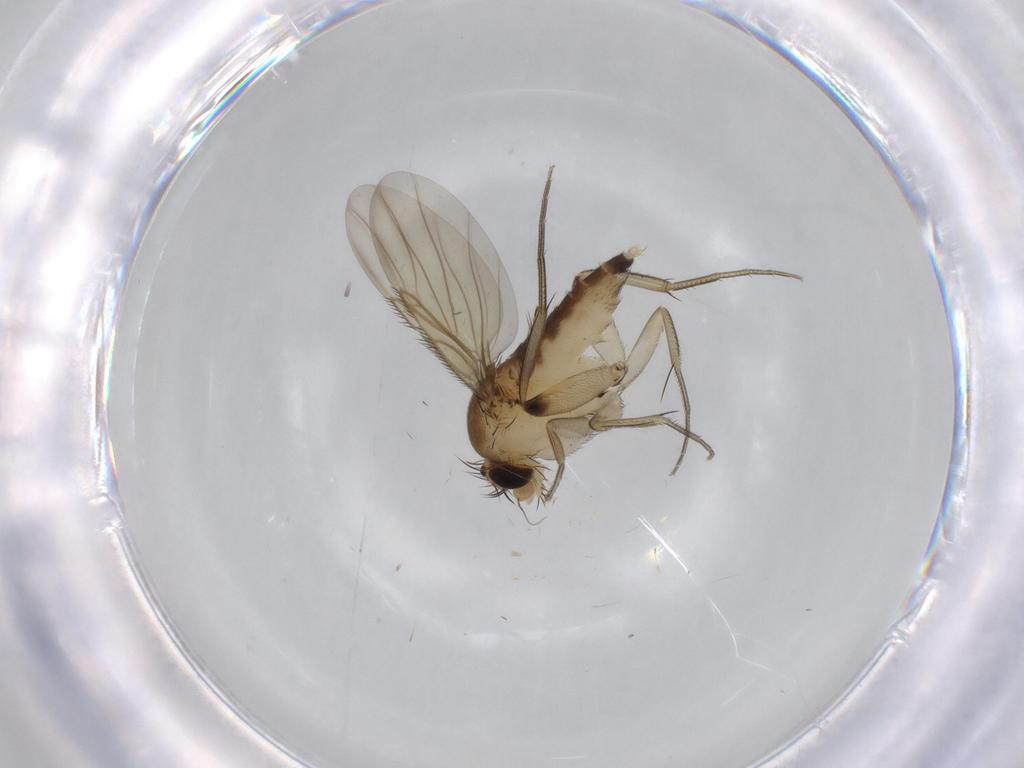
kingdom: Animalia
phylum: Arthropoda
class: Insecta
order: Diptera
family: Phoridae
